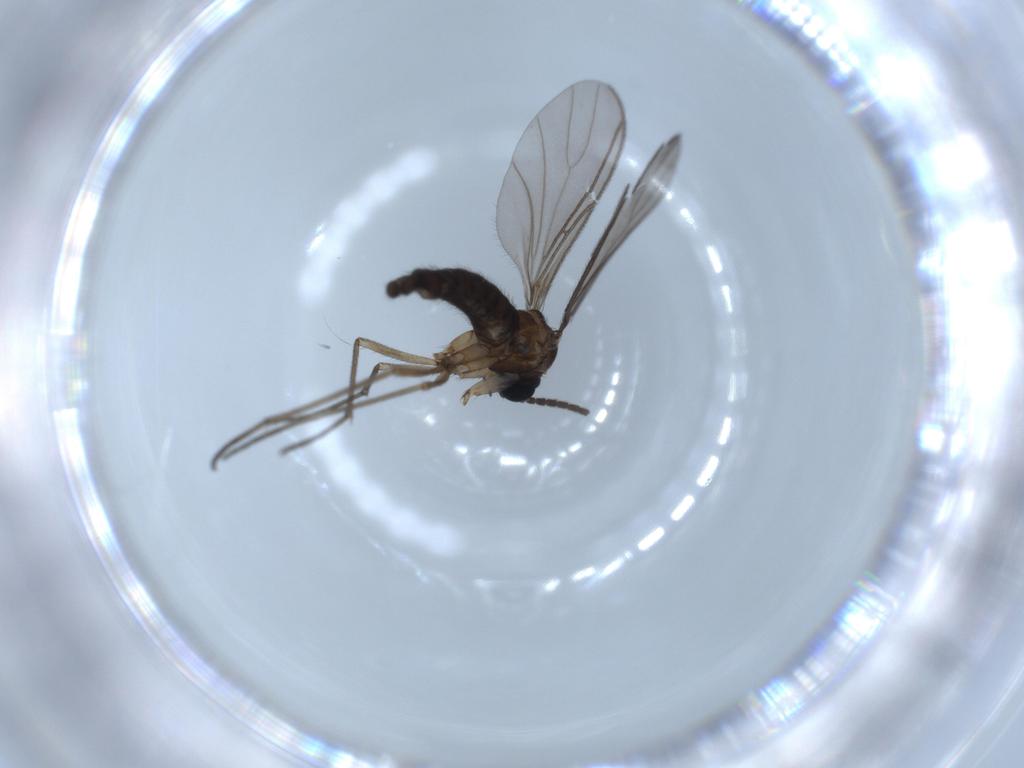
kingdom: Animalia
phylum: Arthropoda
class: Insecta
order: Diptera
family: Sciaridae
